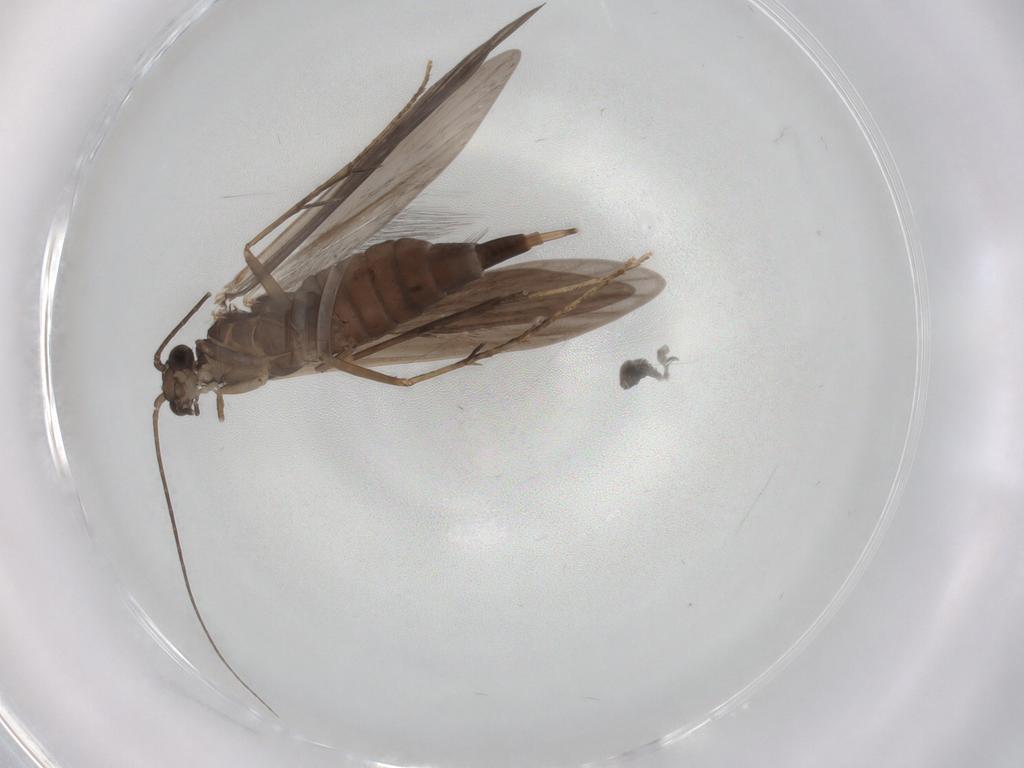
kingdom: Animalia
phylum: Arthropoda
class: Insecta
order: Trichoptera
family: Xiphocentronidae
